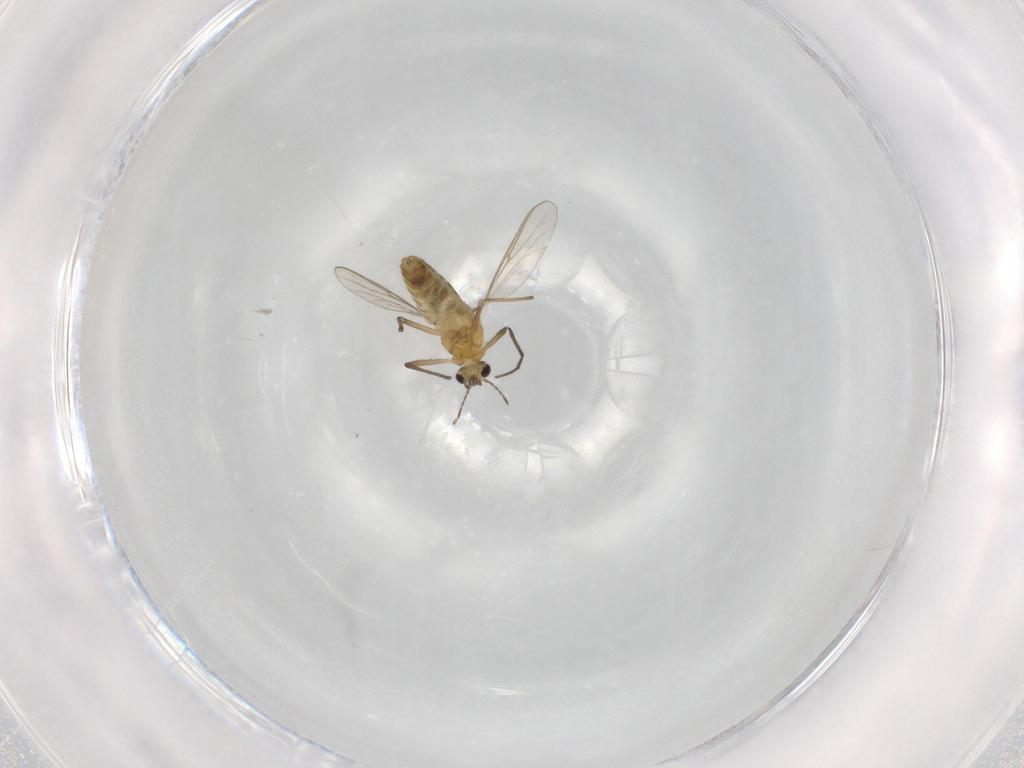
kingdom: Animalia
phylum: Arthropoda
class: Insecta
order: Diptera
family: Chironomidae
